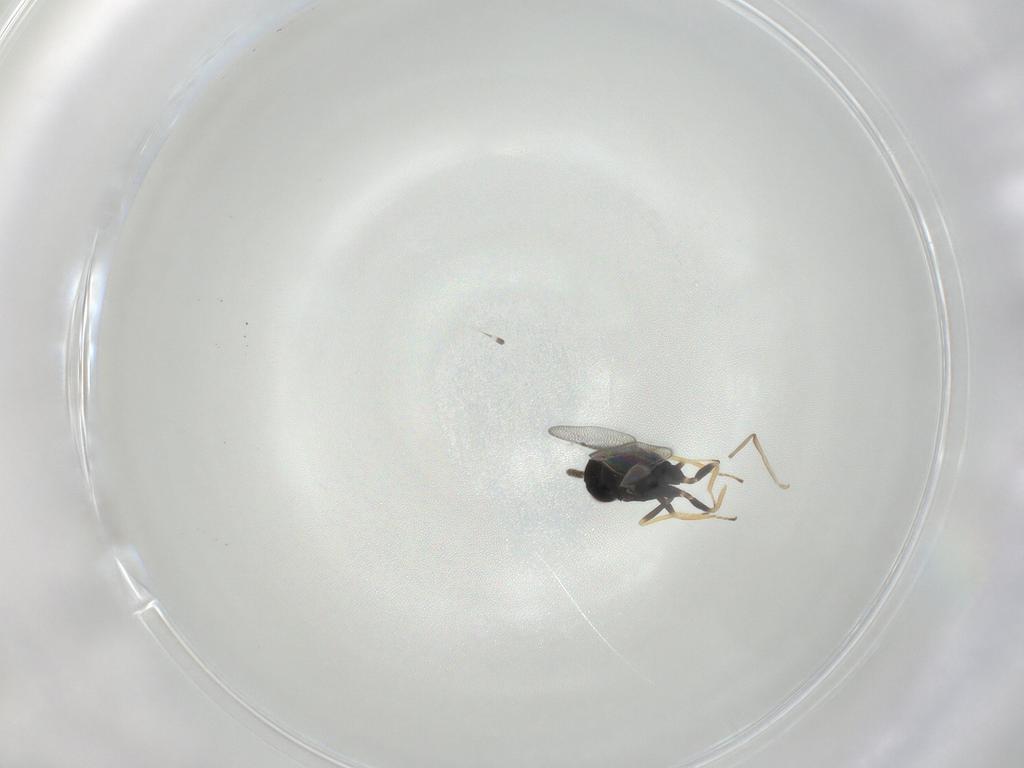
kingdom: Animalia
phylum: Arthropoda
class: Insecta
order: Hymenoptera
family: Eulophidae
